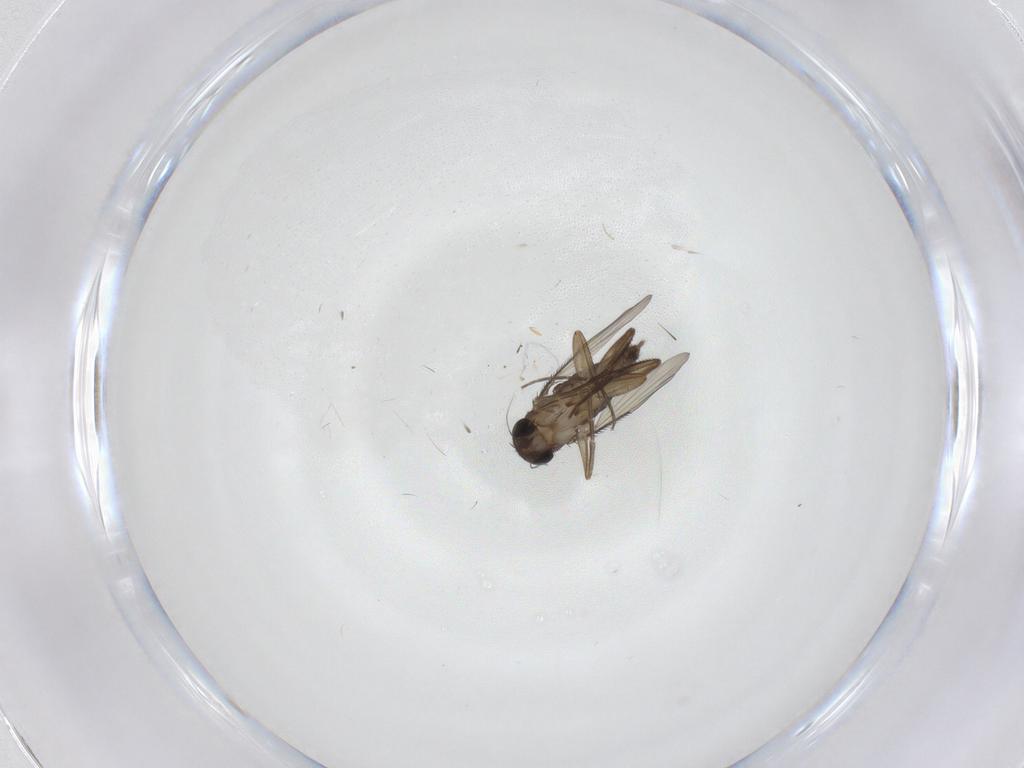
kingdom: Animalia
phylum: Arthropoda
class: Insecta
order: Diptera
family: Phoridae
